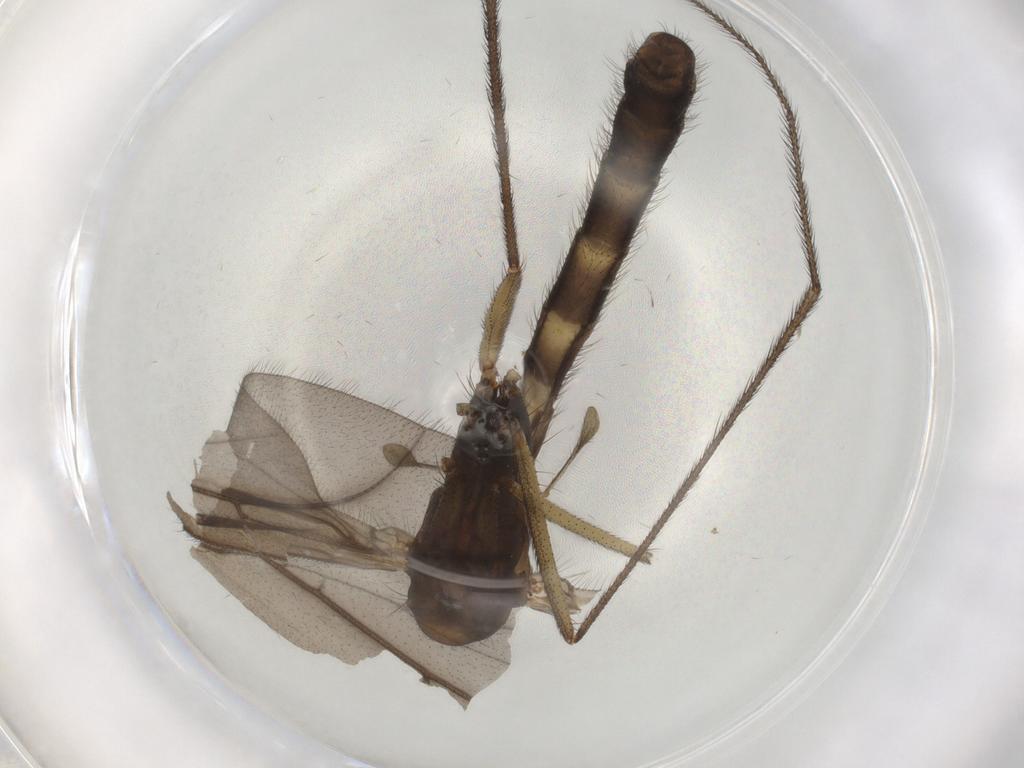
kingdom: Animalia
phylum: Arthropoda
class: Insecta
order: Diptera
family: Ditomyiidae
